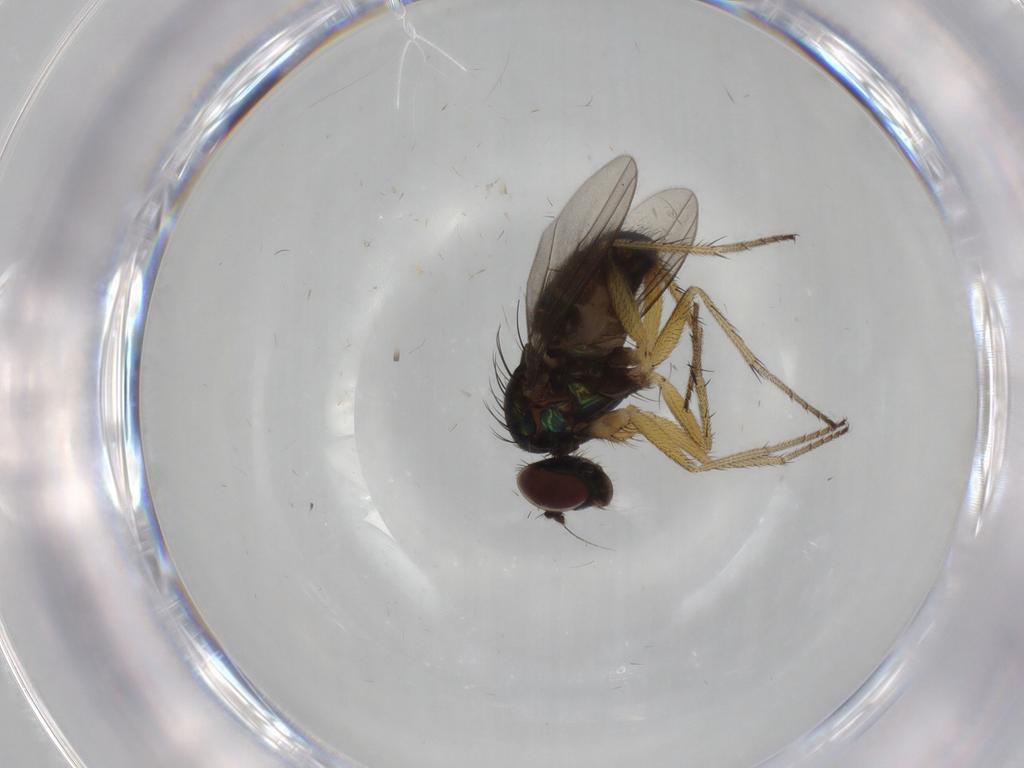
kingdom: Animalia
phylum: Arthropoda
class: Insecta
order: Diptera
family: Dolichopodidae
